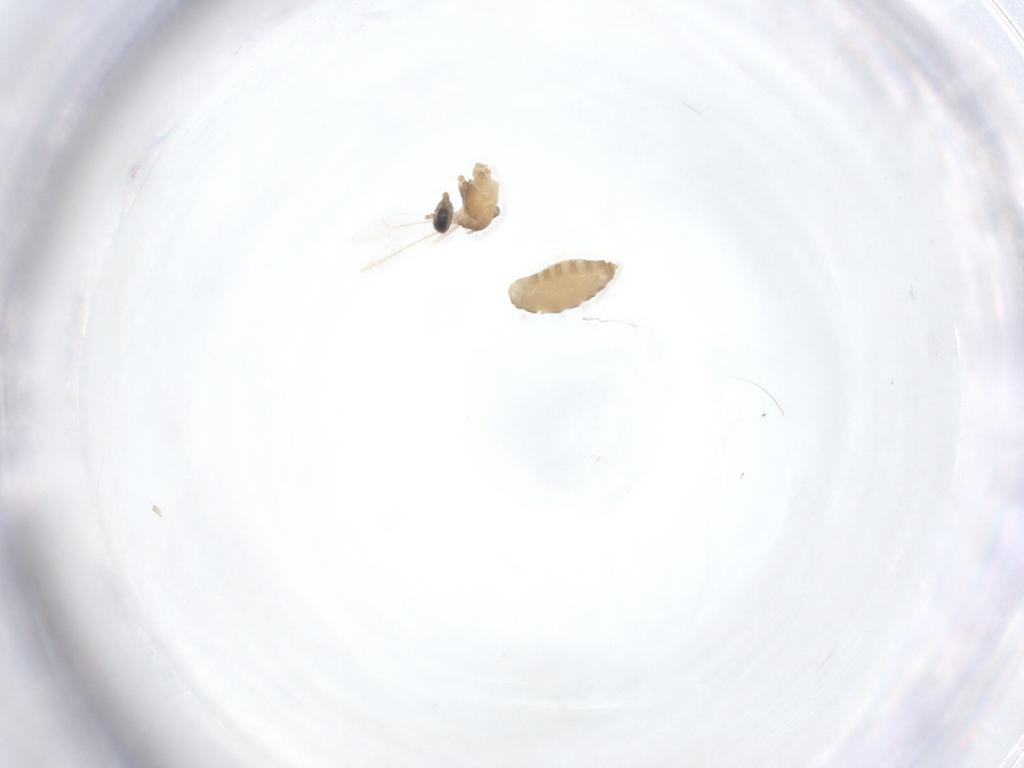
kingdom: Animalia
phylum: Arthropoda
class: Insecta
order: Diptera
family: Cecidomyiidae
